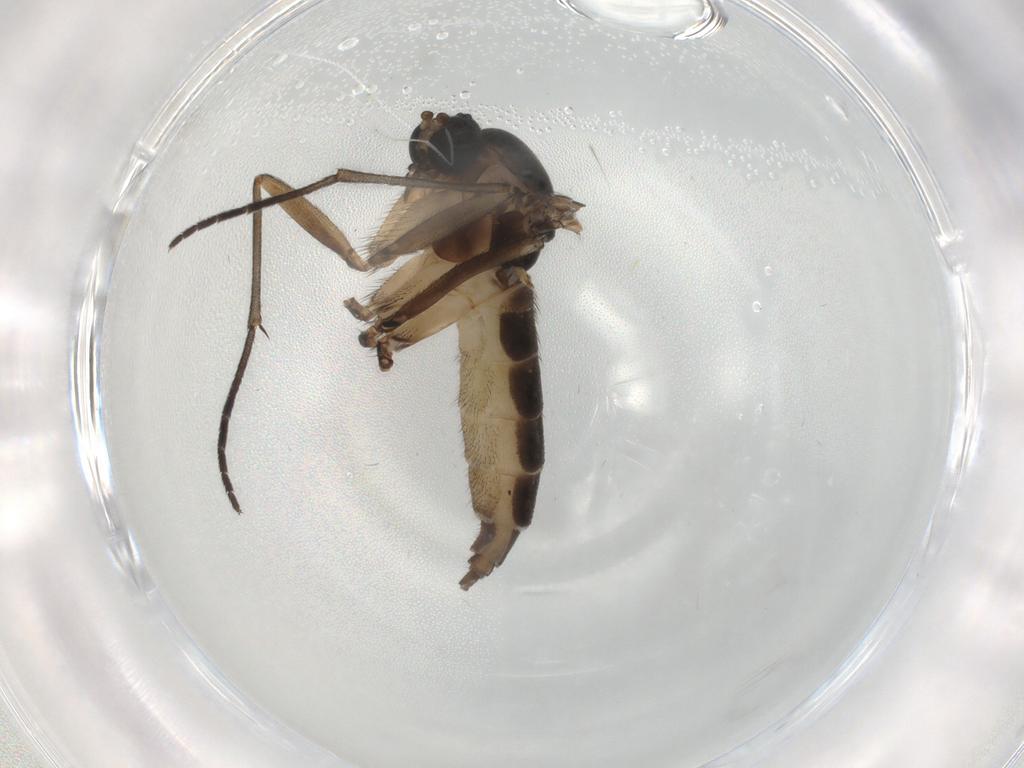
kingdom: Animalia
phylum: Arthropoda
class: Insecta
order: Diptera
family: Sciaridae
